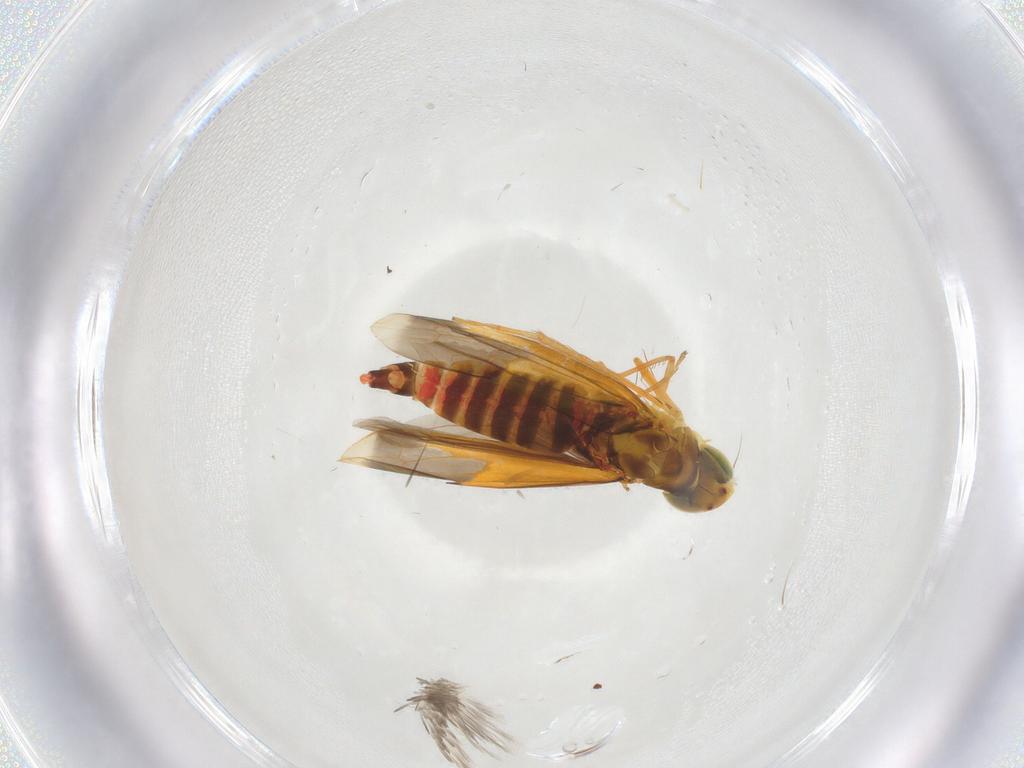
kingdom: Animalia
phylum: Arthropoda
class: Insecta
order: Hemiptera
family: Cicadellidae
